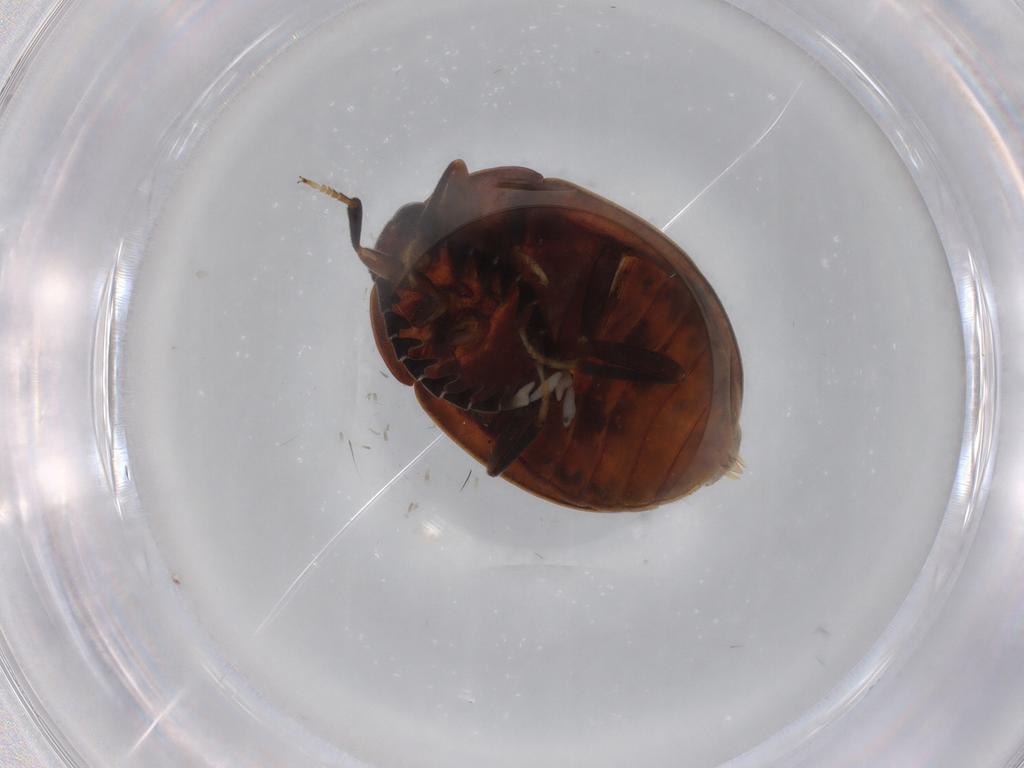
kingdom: Animalia
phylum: Arthropoda
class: Insecta
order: Coleoptera
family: Psephenidae
